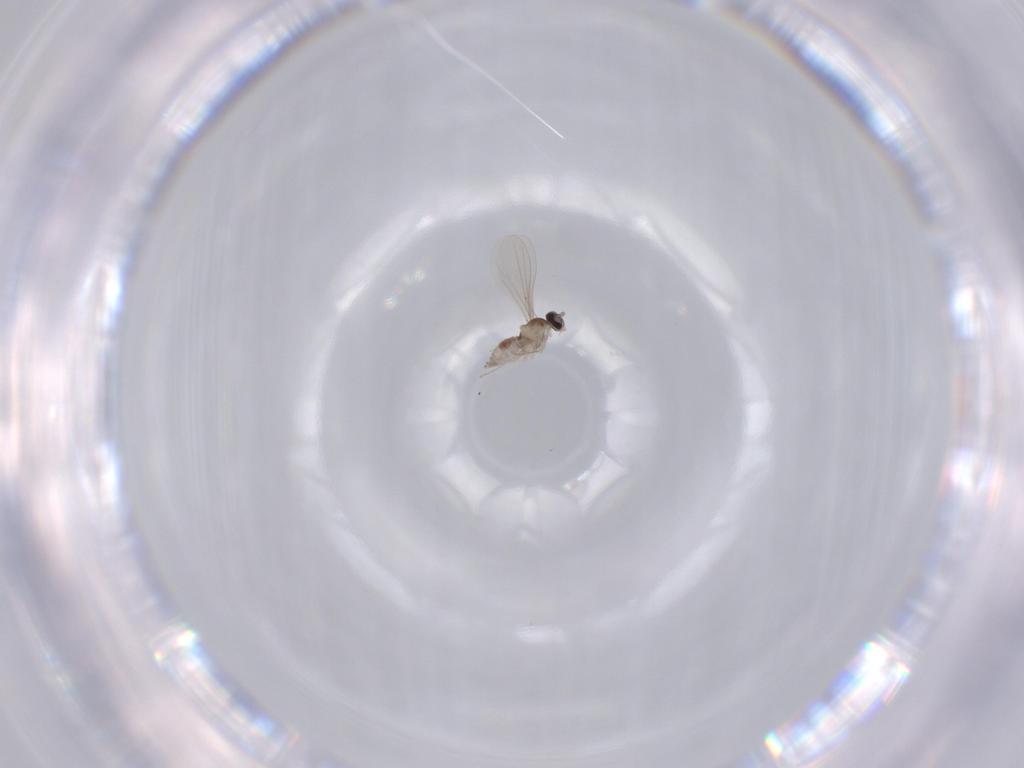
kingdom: Animalia
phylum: Arthropoda
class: Insecta
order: Diptera
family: Cecidomyiidae
